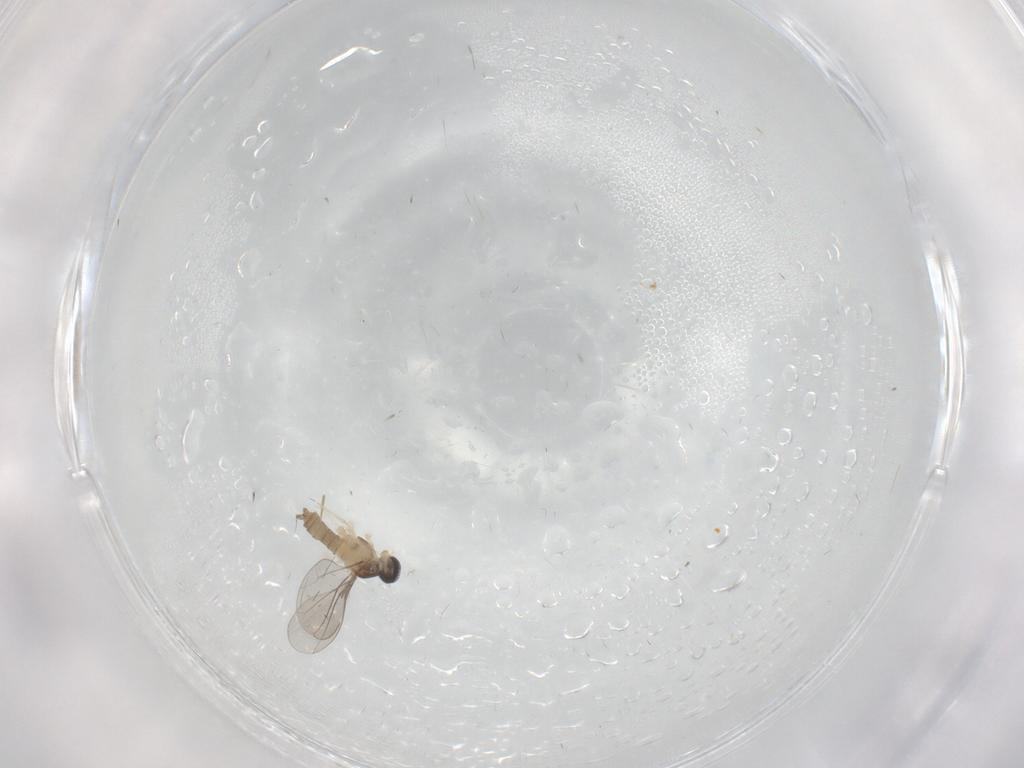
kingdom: Animalia
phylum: Arthropoda
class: Insecta
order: Diptera
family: Cecidomyiidae
